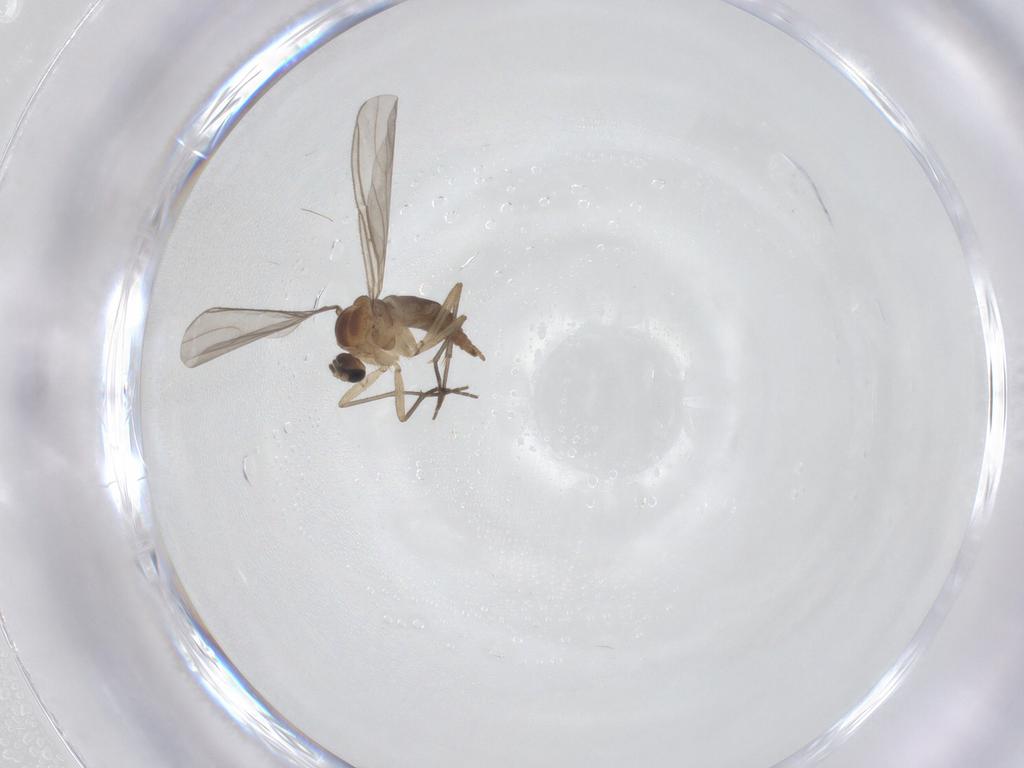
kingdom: Animalia
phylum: Arthropoda
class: Insecta
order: Diptera
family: Sciaridae
